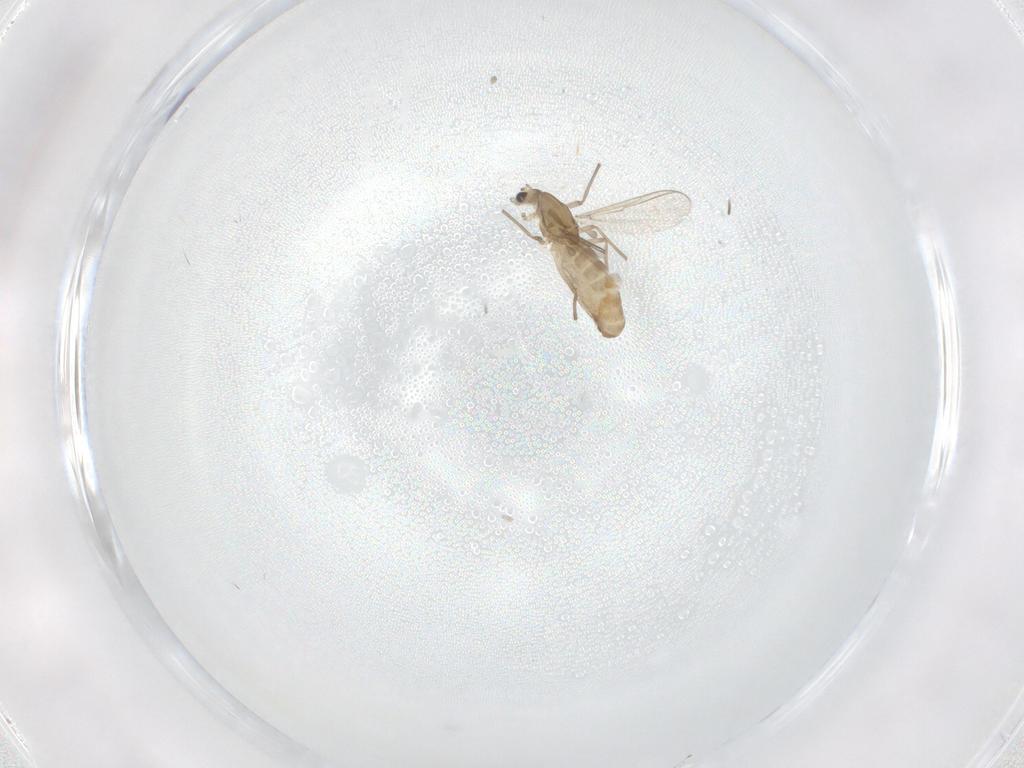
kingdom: Animalia
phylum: Arthropoda
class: Insecta
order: Diptera
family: Chironomidae
